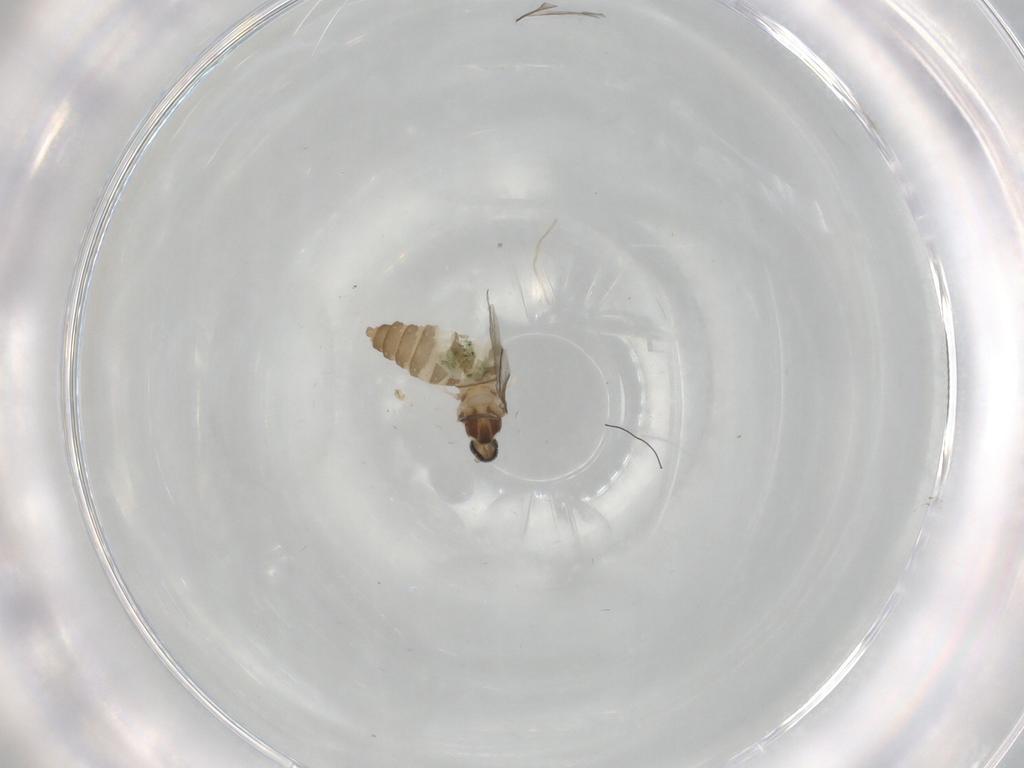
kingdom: Animalia
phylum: Arthropoda
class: Insecta
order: Diptera
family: Cecidomyiidae
